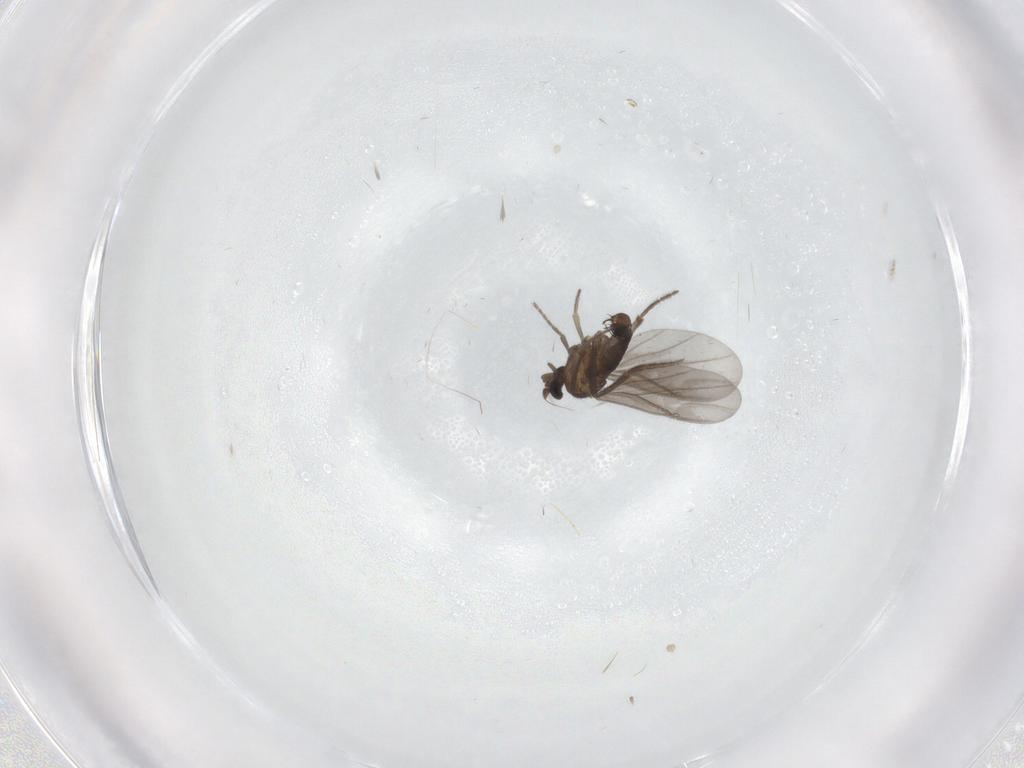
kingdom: Animalia
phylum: Arthropoda
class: Insecta
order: Diptera
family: Phoridae
